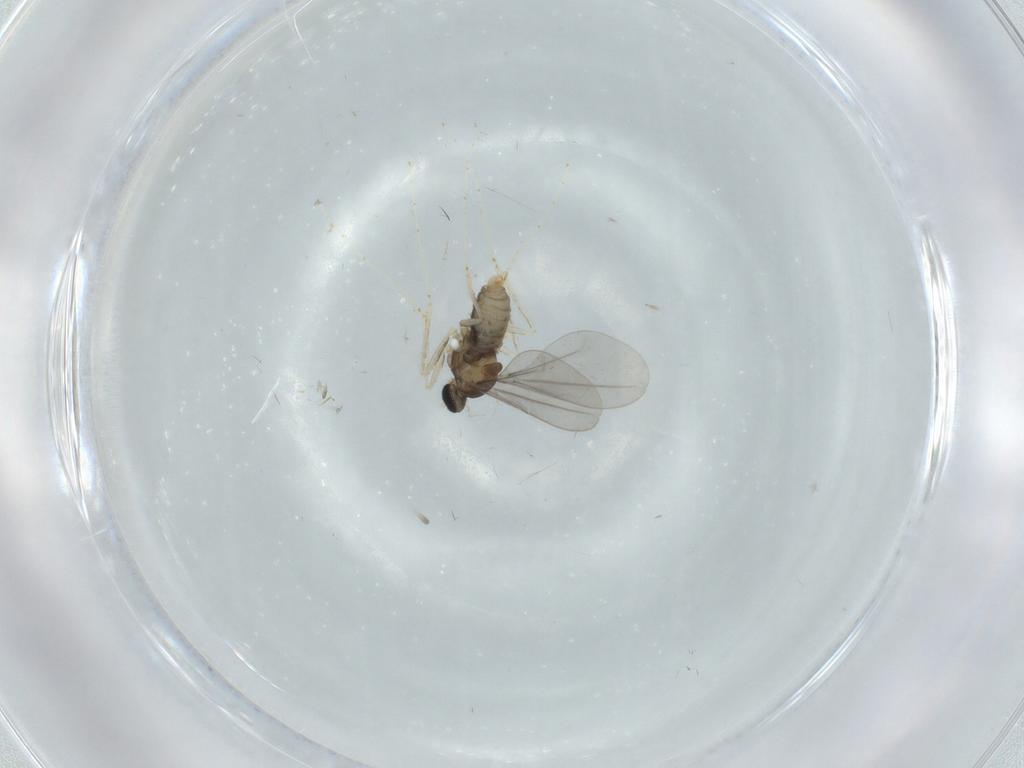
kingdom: Animalia
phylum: Arthropoda
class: Insecta
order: Diptera
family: Cecidomyiidae
